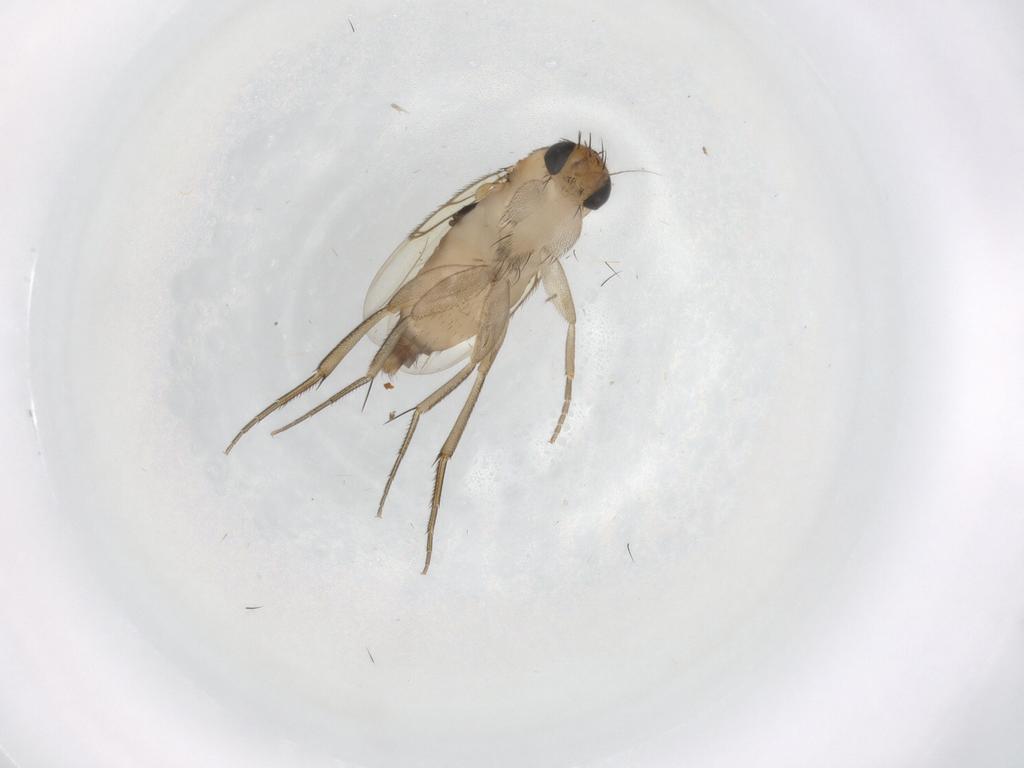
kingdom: Animalia
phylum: Arthropoda
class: Insecta
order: Diptera
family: Phoridae
